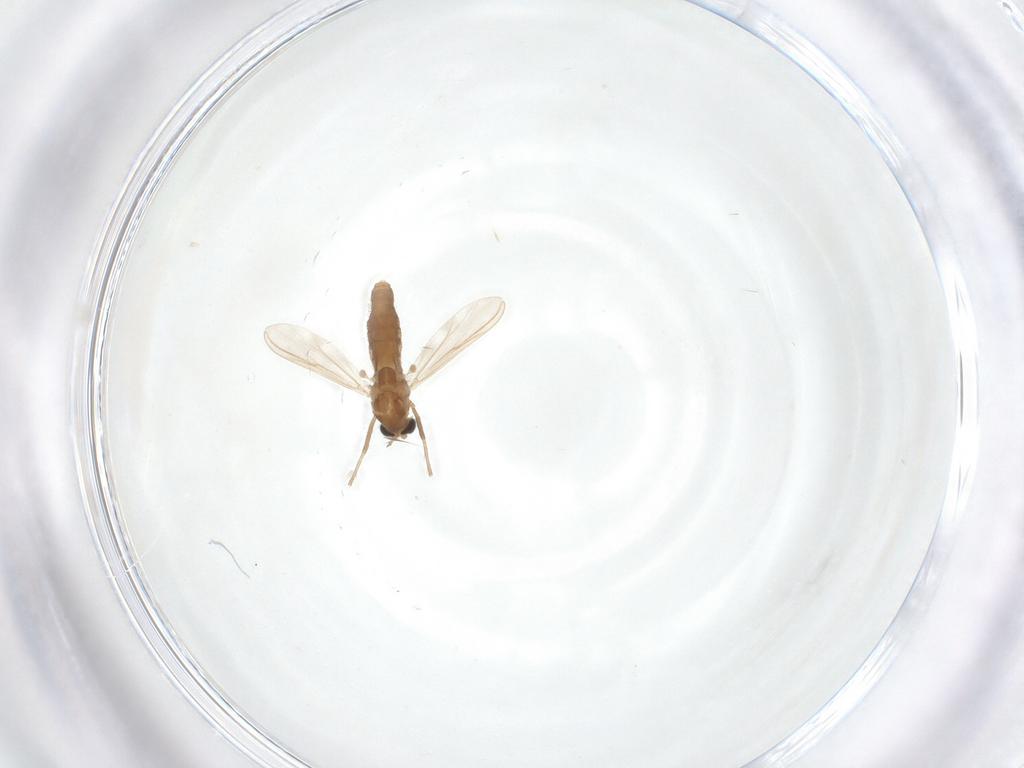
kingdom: Animalia
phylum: Arthropoda
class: Insecta
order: Diptera
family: Chironomidae
